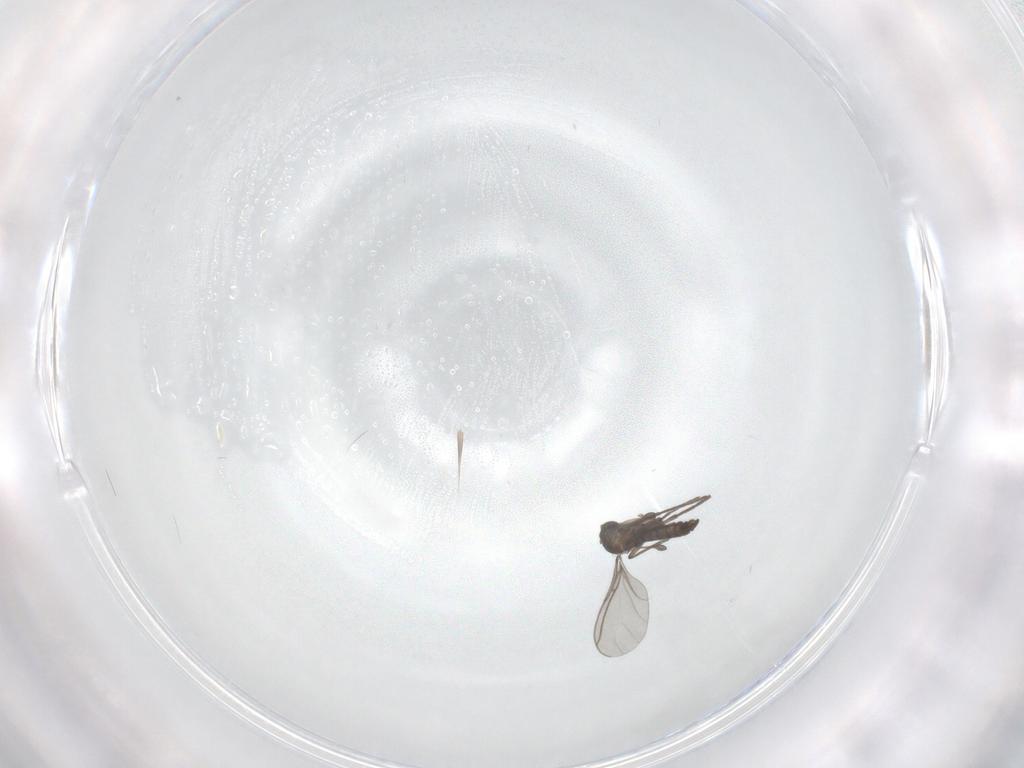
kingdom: Animalia
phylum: Arthropoda
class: Insecta
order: Diptera
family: Sciaridae
